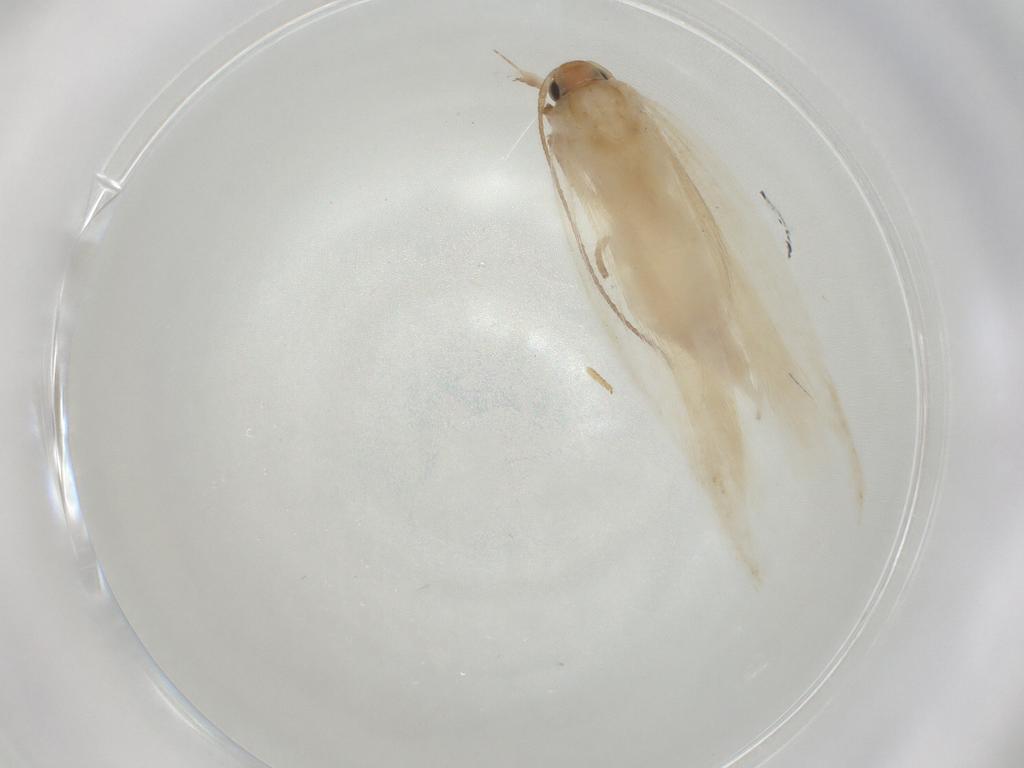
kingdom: Animalia
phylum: Arthropoda
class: Insecta
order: Lepidoptera
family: Gelechiidae
